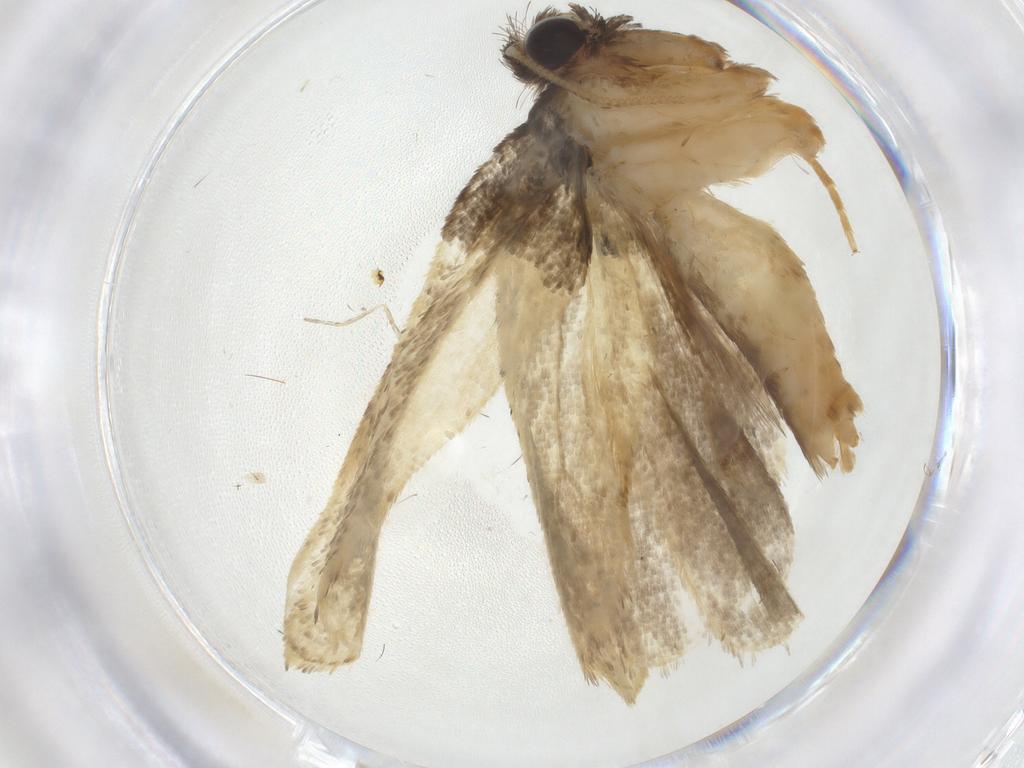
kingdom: Animalia
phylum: Arthropoda
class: Insecta
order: Lepidoptera
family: Psychidae
